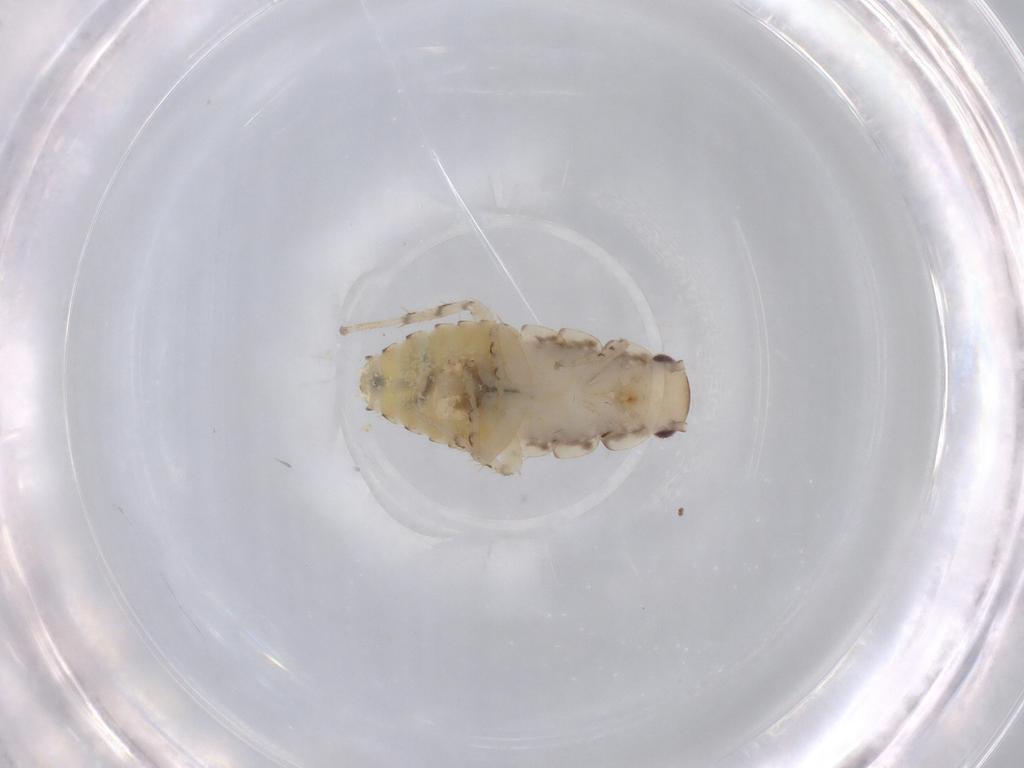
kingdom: Animalia
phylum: Arthropoda
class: Insecta
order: Blattodea
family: Ectobiidae
